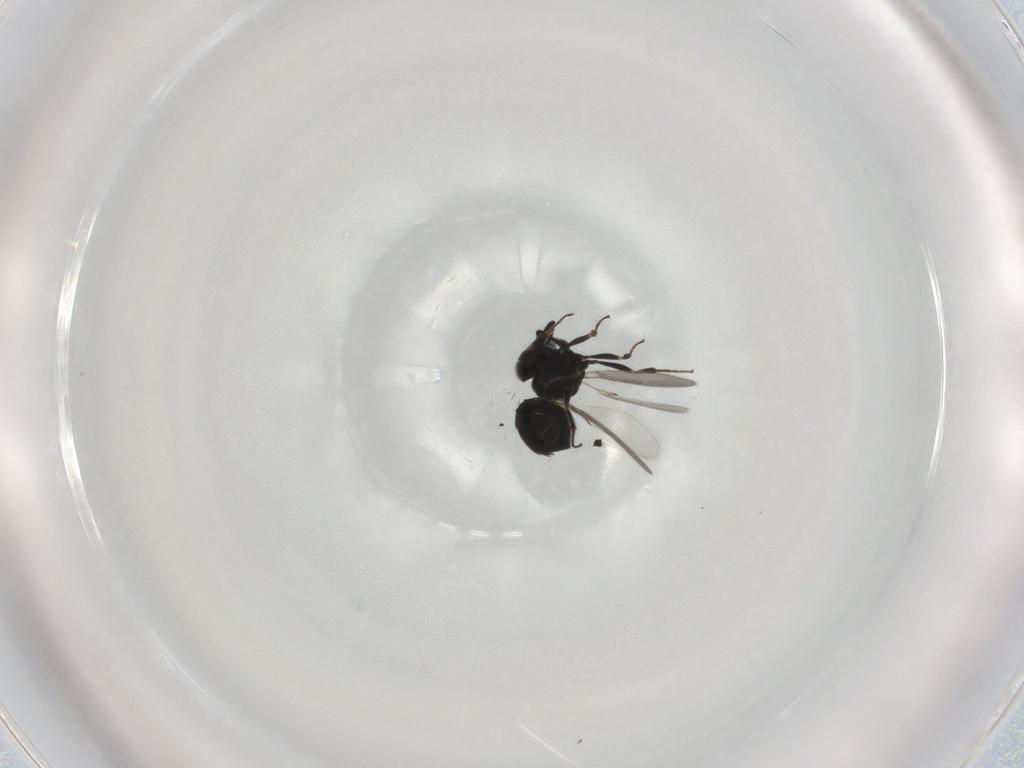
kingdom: Animalia
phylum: Arthropoda
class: Insecta
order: Hymenoptera
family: Scelionidae
